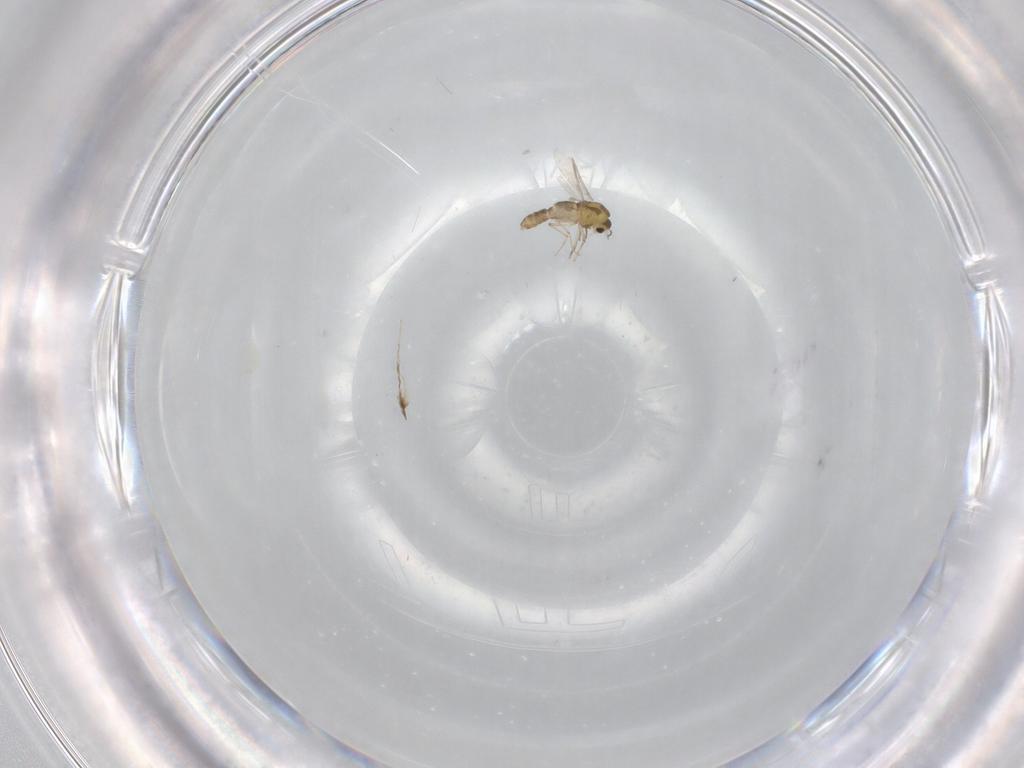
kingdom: Animalia
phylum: Arthropoda
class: Insecta
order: Diptera
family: Chironomidae
